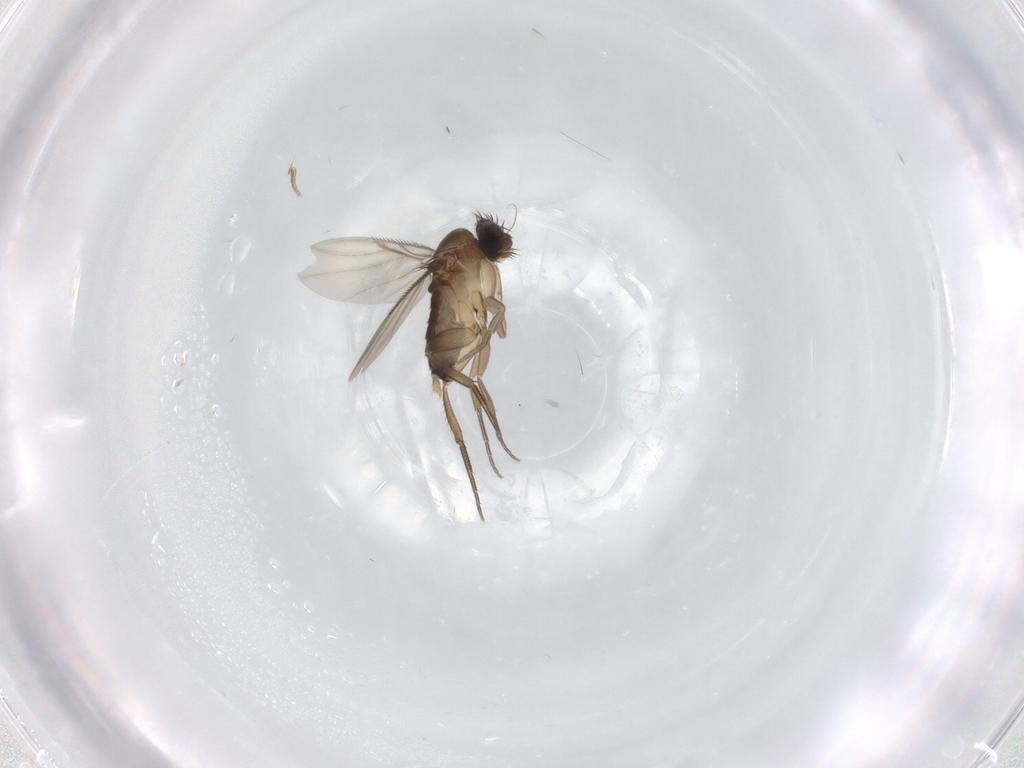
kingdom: Animalia
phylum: Arthropoda
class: Insecta
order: Diptera
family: Phoridae
